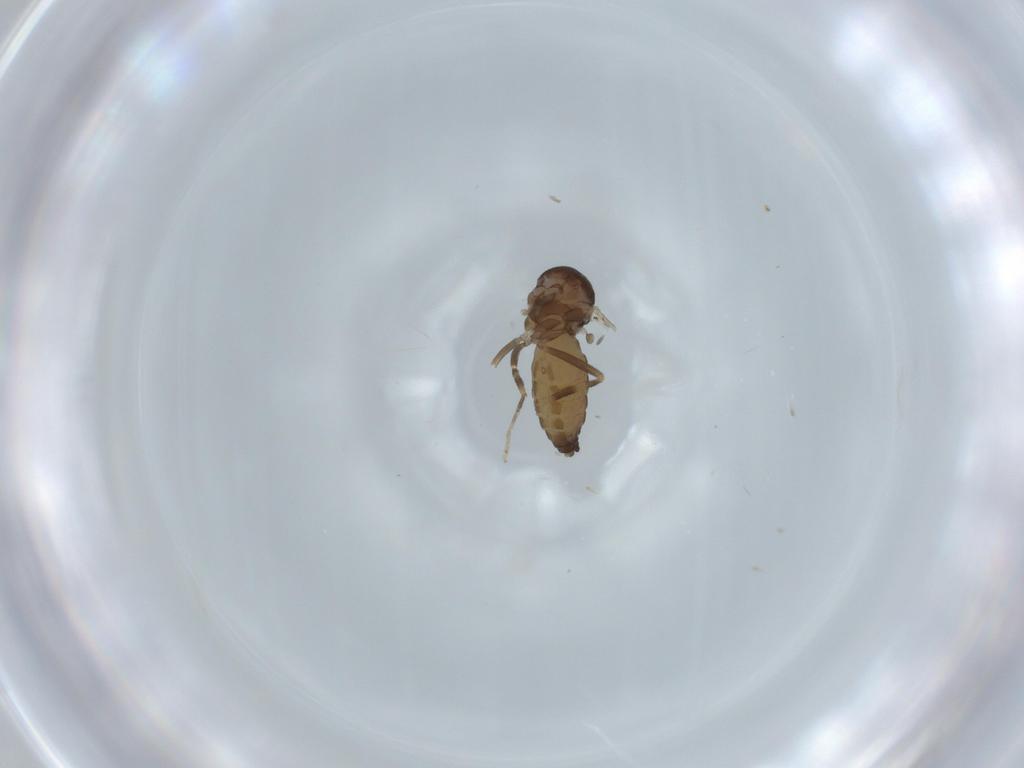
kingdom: Animalia
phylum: Arthropoda
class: Insecta
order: Diptera
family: Ceratopogonidae
